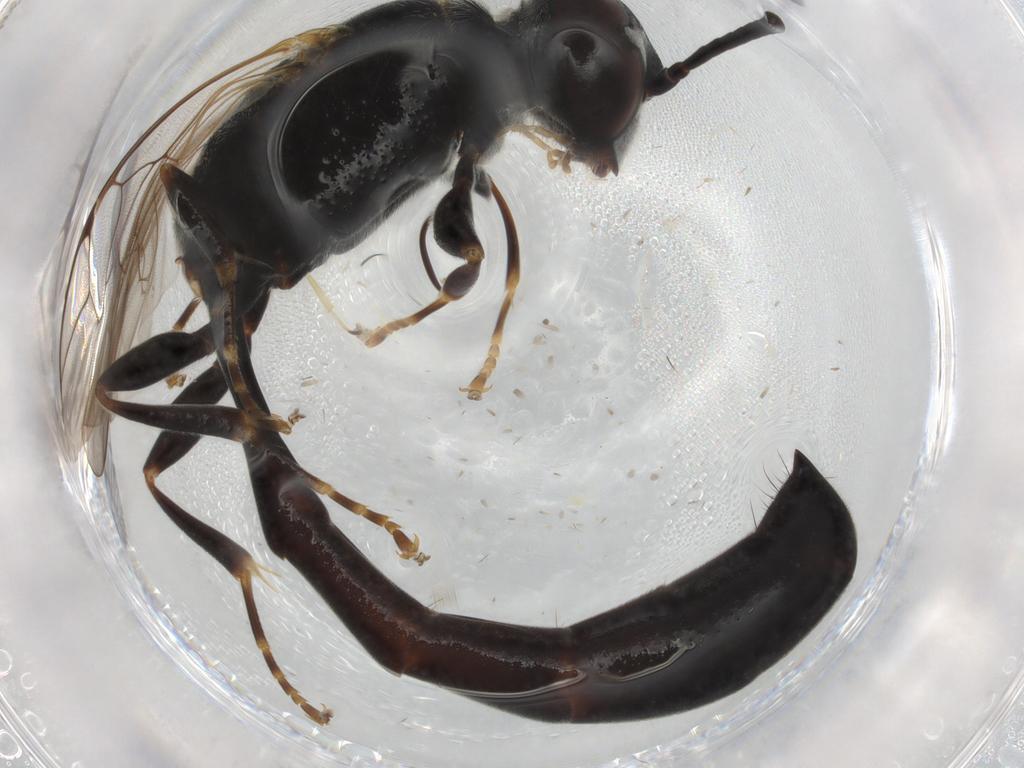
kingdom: Animalia
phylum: Arthropoda
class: Insecta
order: Hymenoptera
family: Formicidae
